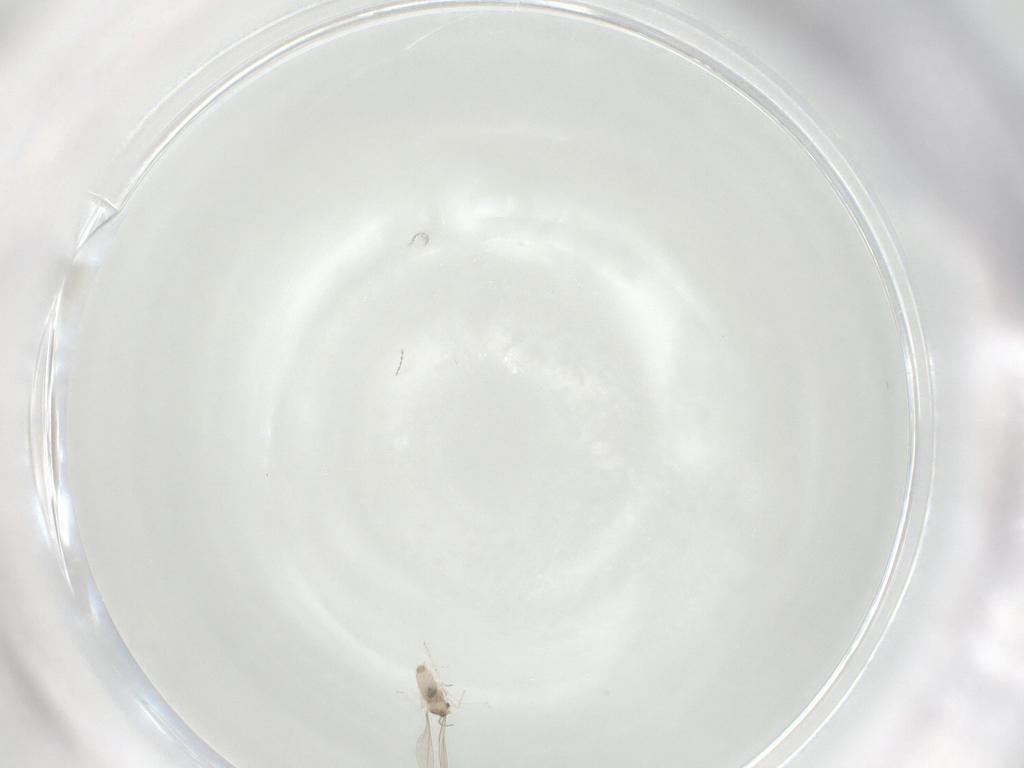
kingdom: Animalia
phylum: Arthropoda
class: Insecta
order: Diptera
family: Cecidomyiidae
